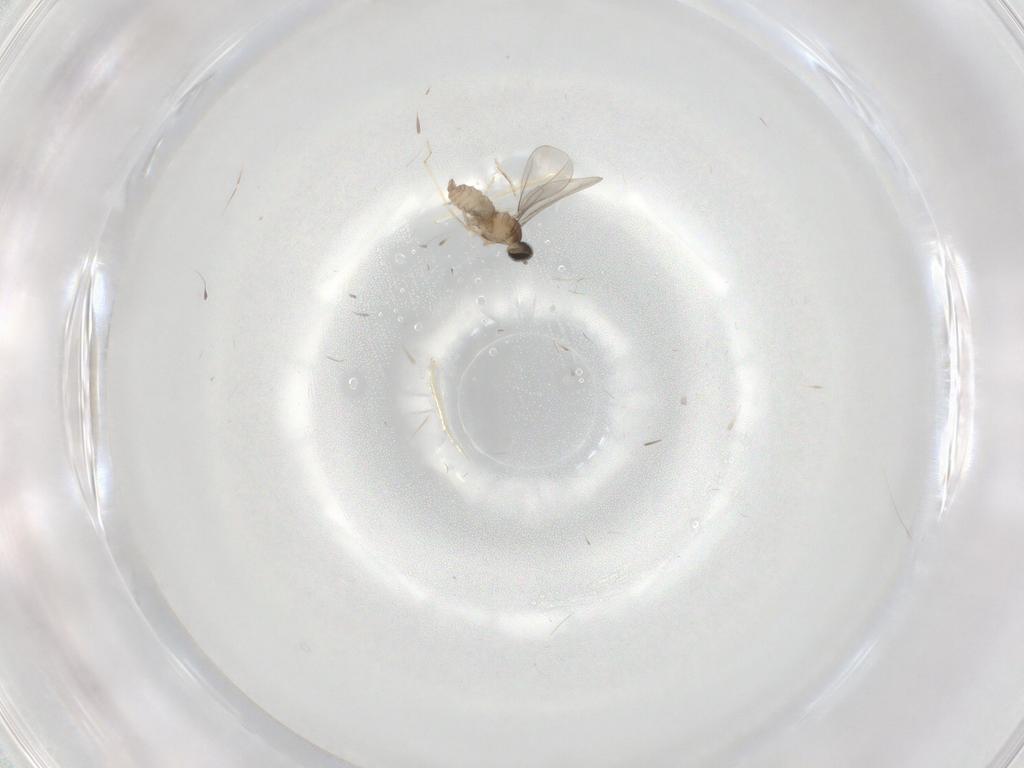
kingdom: Animalia
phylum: Arthropoda
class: Insecta
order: Diptera
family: Cecidomyiidae
